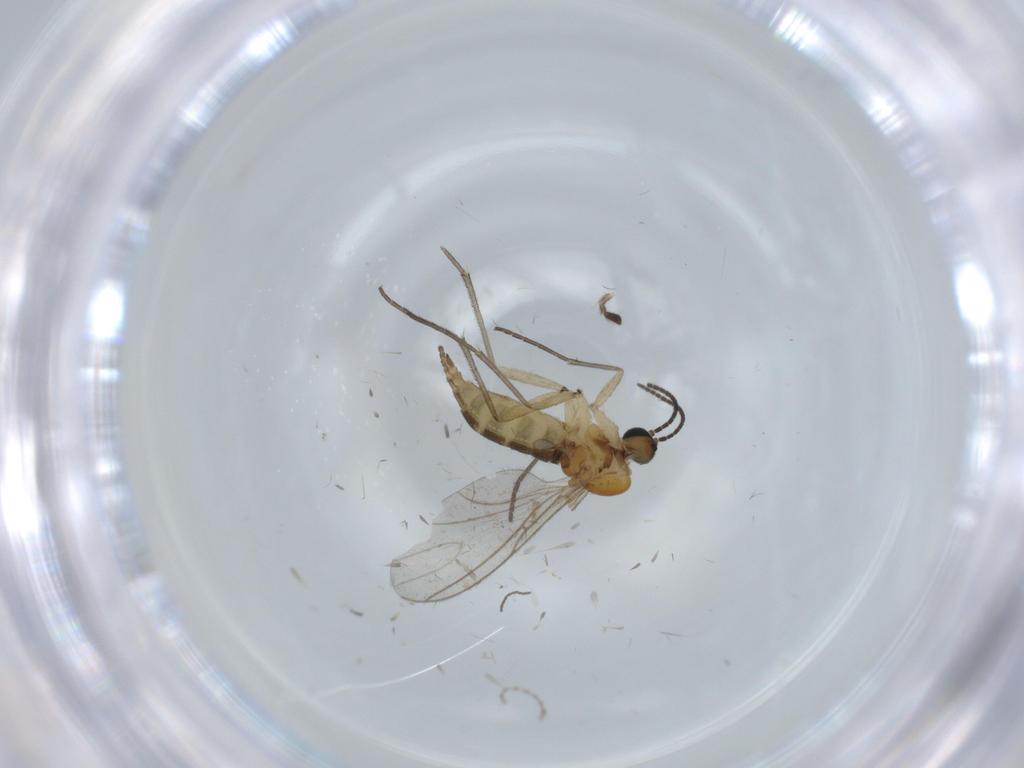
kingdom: Animalia
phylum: Arthropoda
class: Insecta
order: Diptera
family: Sciaridae
